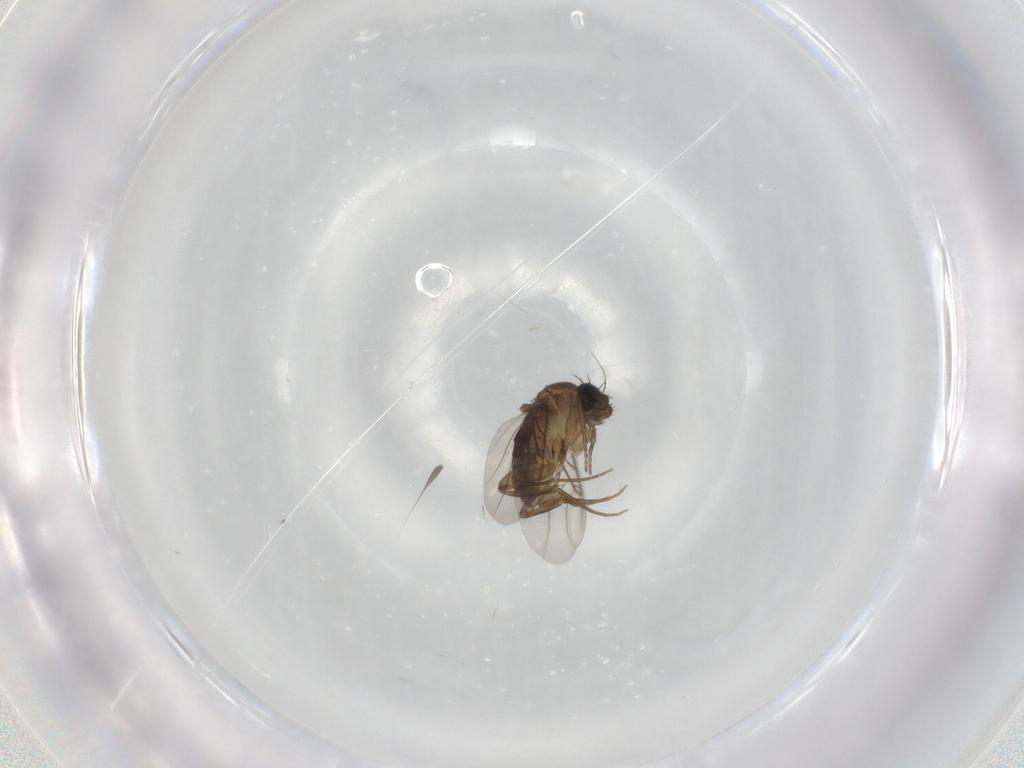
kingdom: Animalia
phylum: Arthropoda
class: Insecta
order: Diptera
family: Phoridae
